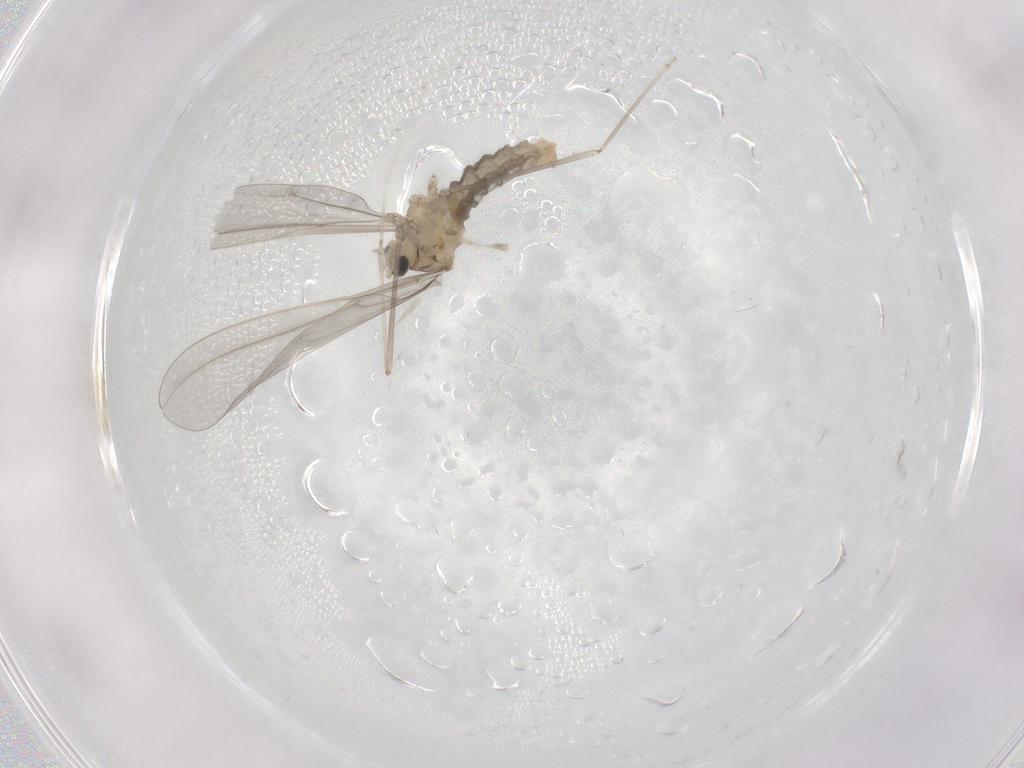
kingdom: Animalia
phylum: Arthropoda
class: Insecta
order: Diptera
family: Cecidomyiidae
